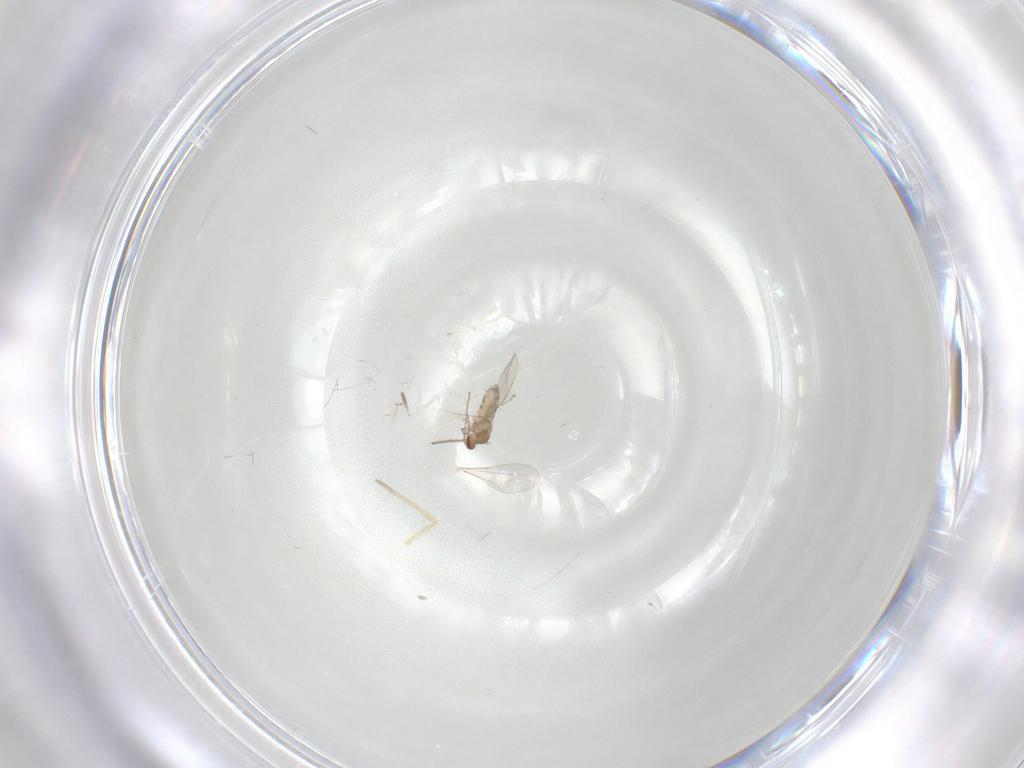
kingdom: Animalia
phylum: Arthropoda
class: Insecta
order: Diptera
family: Cecidomyiidae
